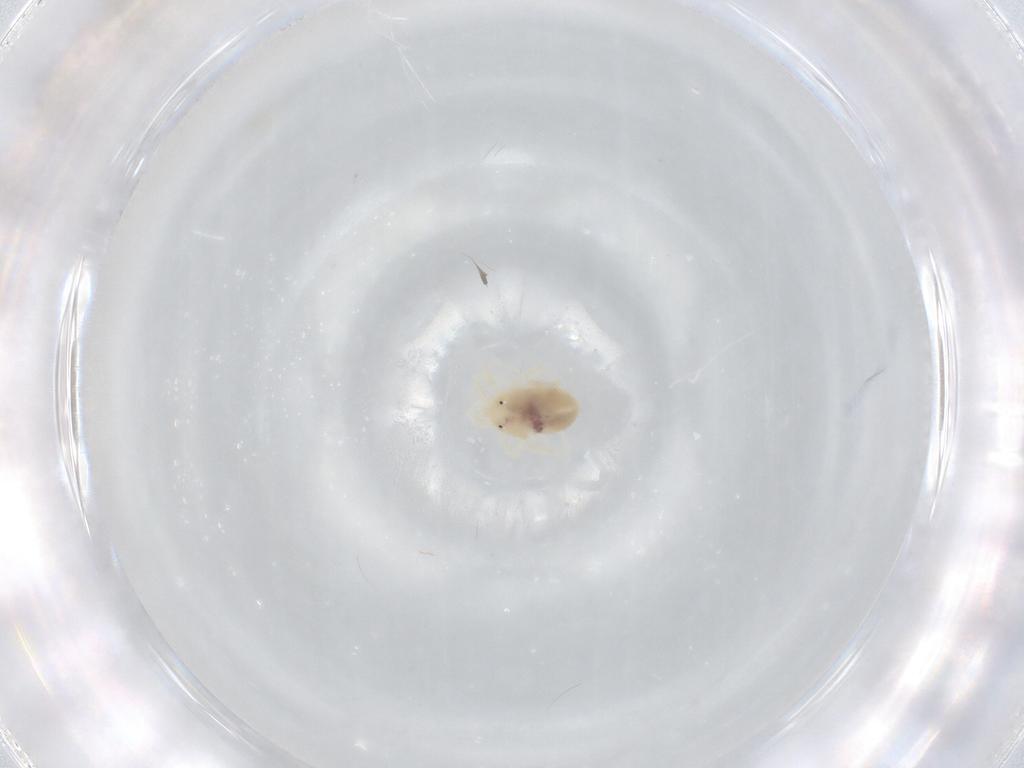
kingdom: Animalia
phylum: Arthropoda
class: Arachnida
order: Trombidiformes
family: Anystidae
